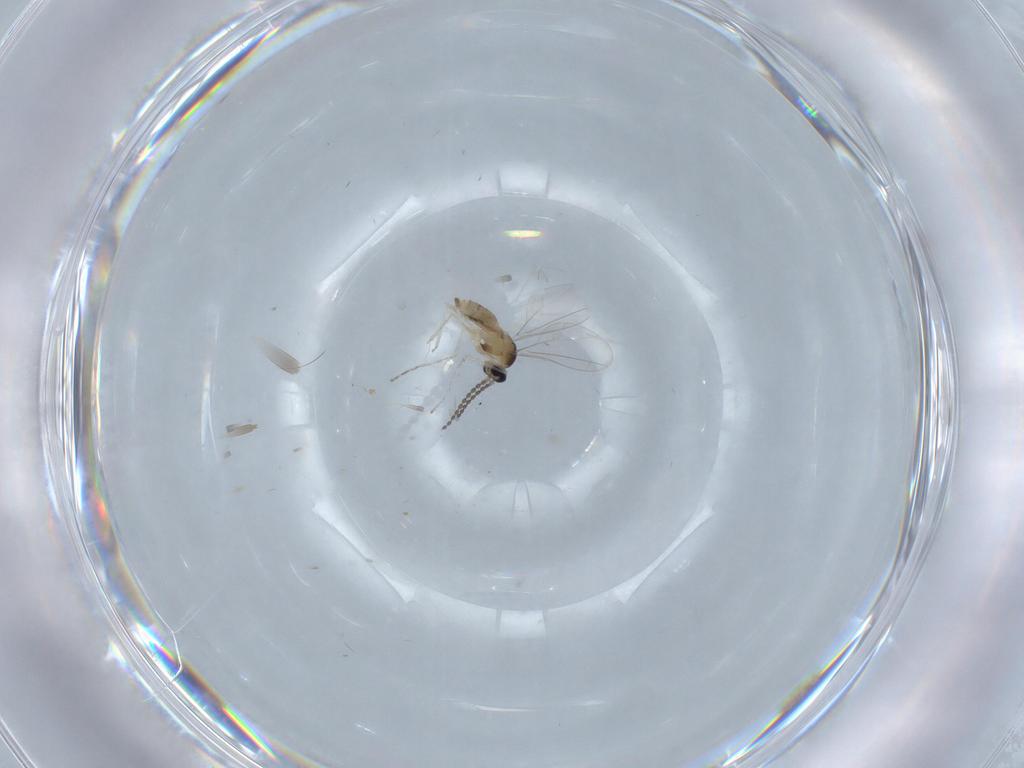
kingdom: Animalia
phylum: Arthropoda
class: Insecta
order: Diptera
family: Cecidomyiidae
